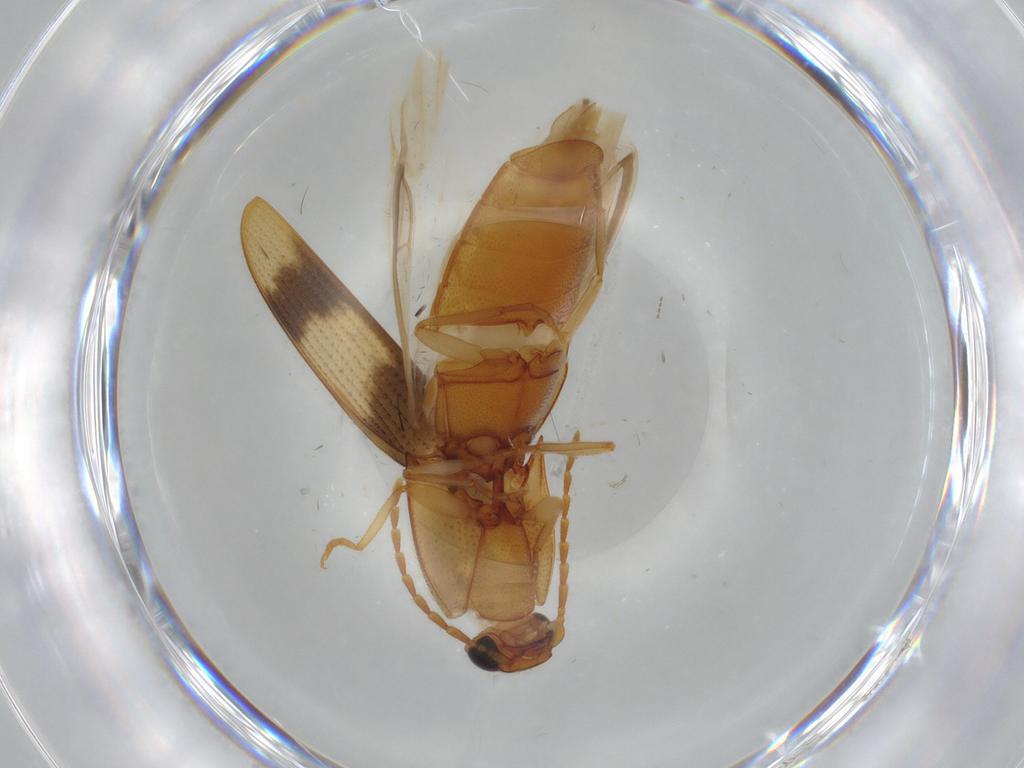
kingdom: Animalia
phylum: Arthropoda
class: Insecta
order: Coleoptera
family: Elateridae
